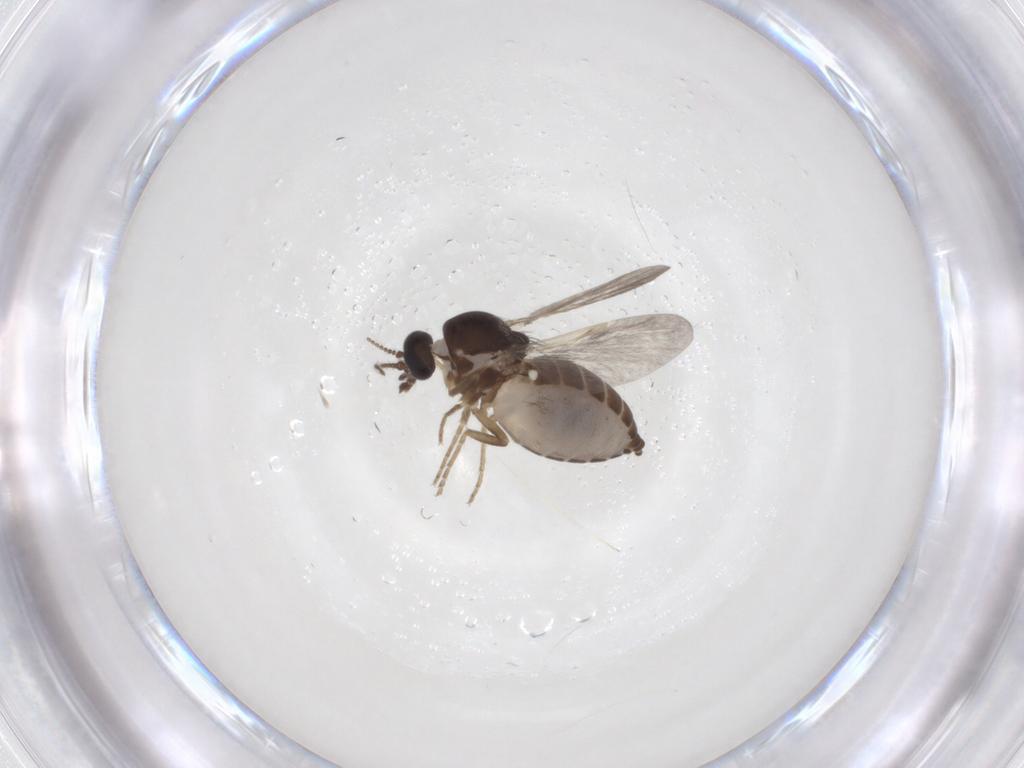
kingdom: Animalia
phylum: Arthropoda
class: Insecta
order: Diptera
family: Ceratopogonidae
